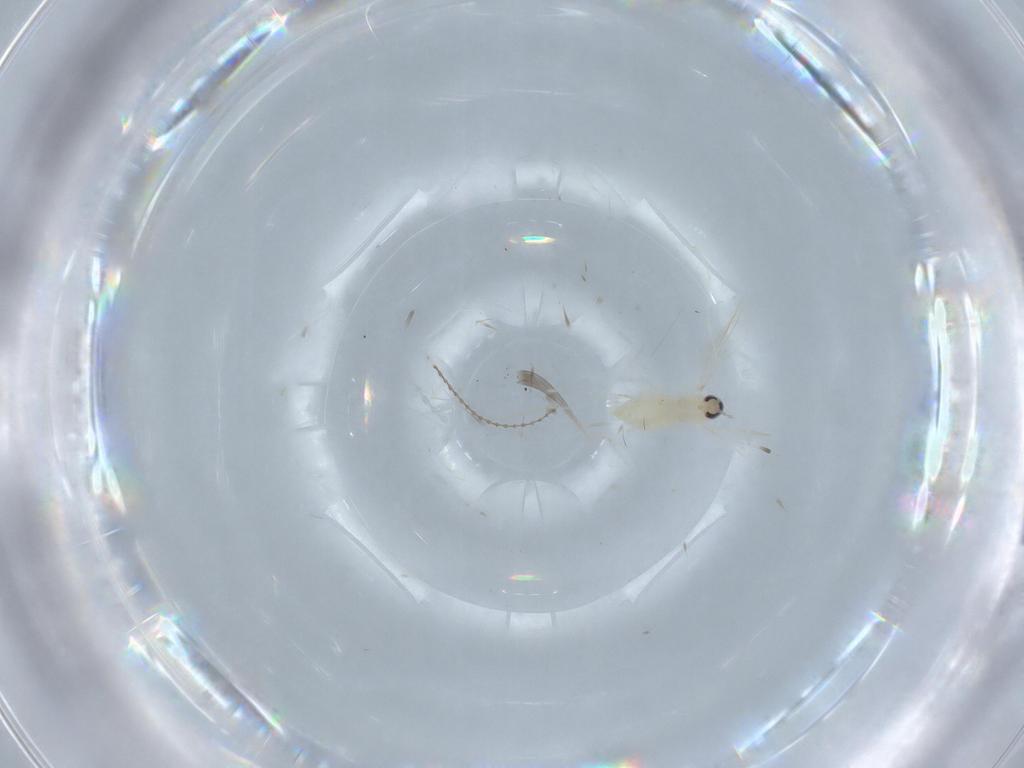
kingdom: Animalia
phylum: Arthropoda
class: Insecta
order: Diptera
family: Cecidomyiidae
